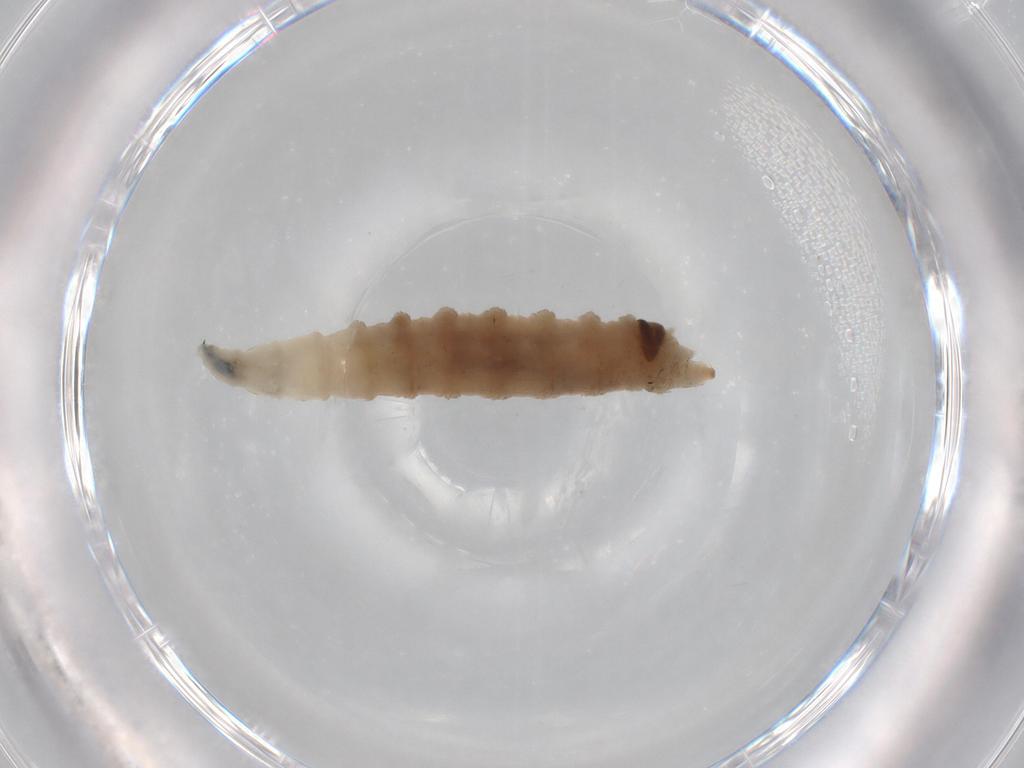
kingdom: Animalia
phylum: Arthropoda
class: Insecta
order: Diptera
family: Drosophilidae
